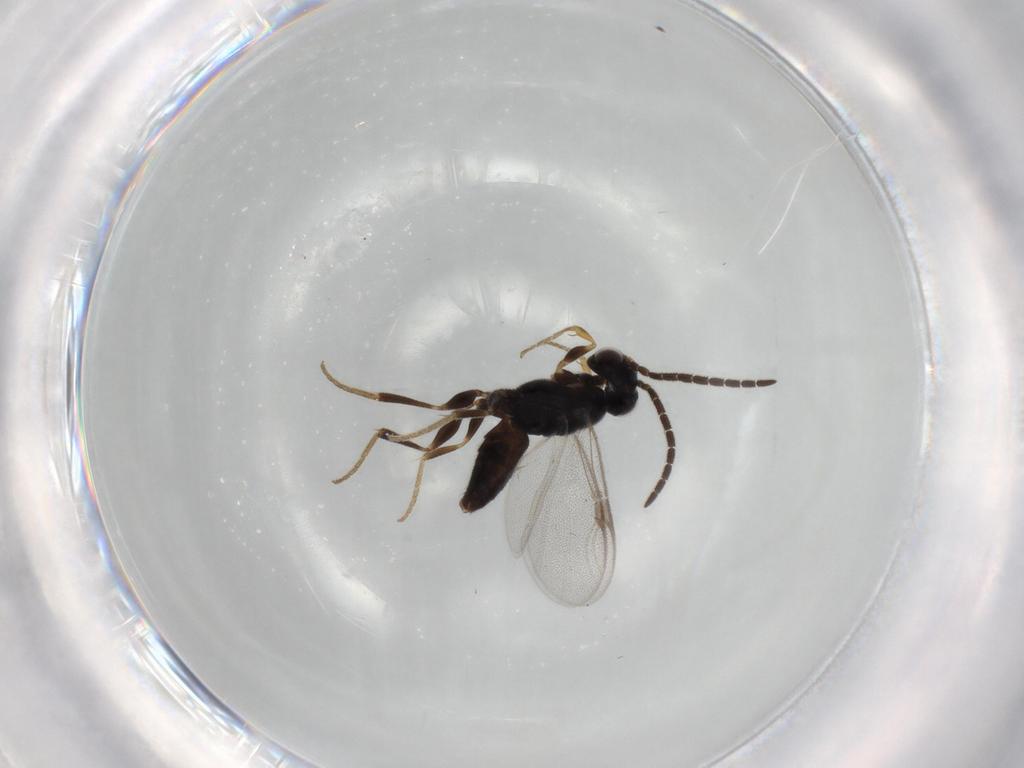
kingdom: Animalia
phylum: Arthropoda
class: Insecta
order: Hymenoptera
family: Dryinidae
